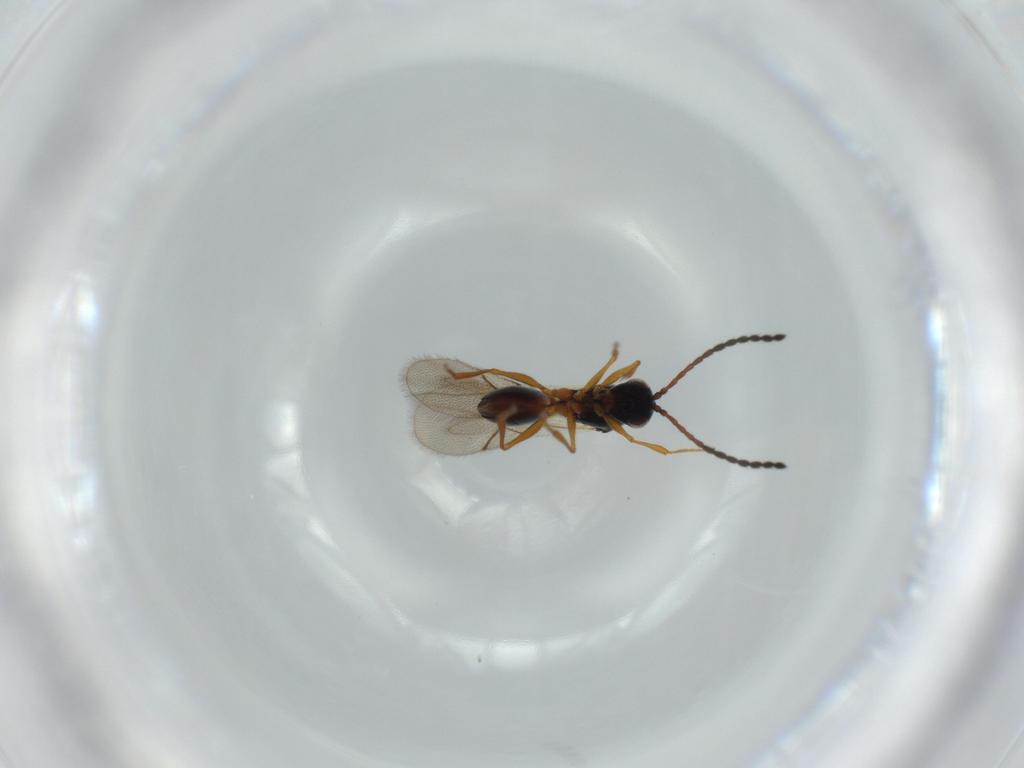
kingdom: Animalia
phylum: Arthropoda
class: Insecta
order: Hymenoptera
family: Figitidae
